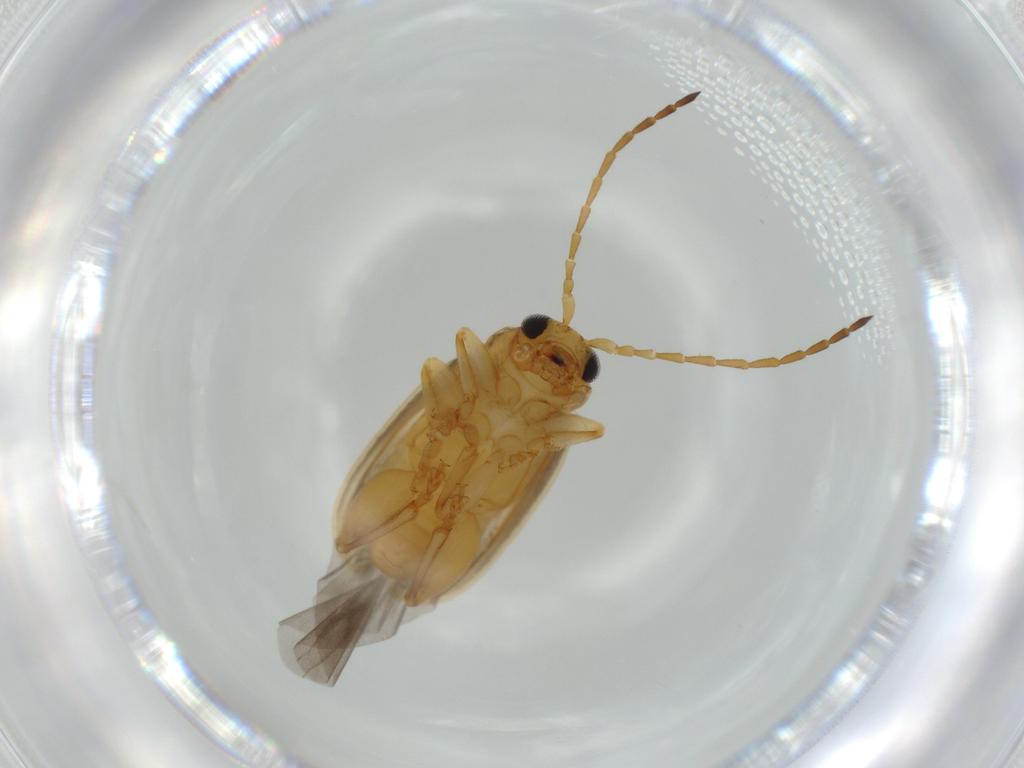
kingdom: Animalia
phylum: Arthropoda
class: Insecta
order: Coleoptera
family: Chrysomelidae
